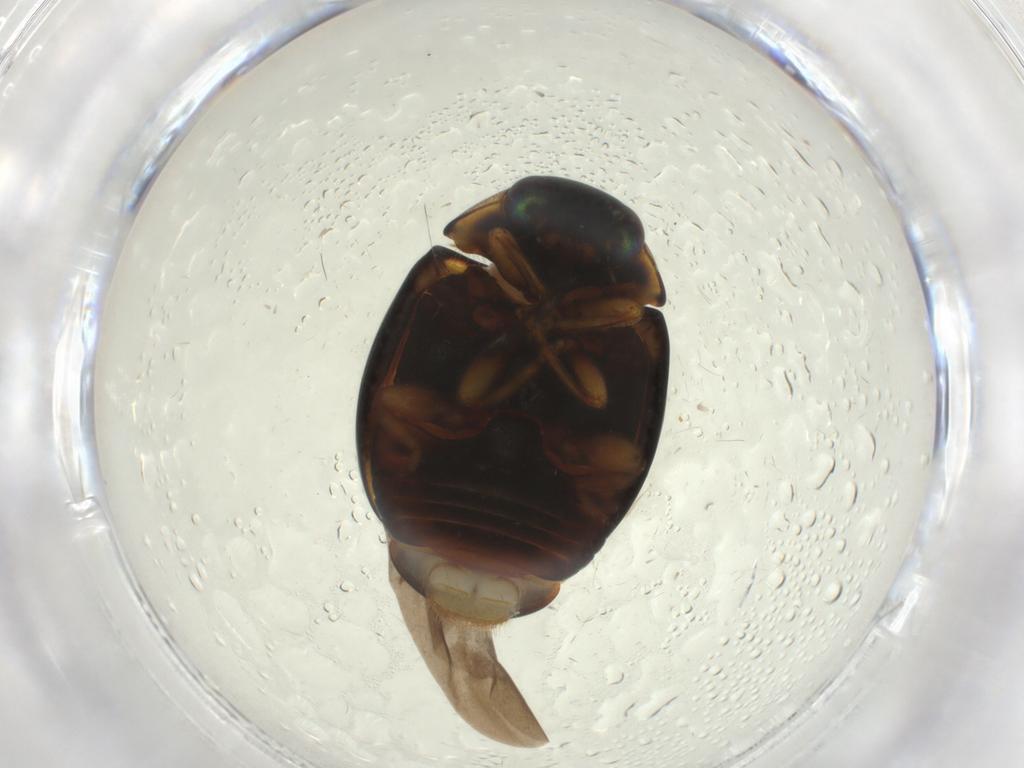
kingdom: Animalia
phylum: Arthropoda
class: Insecta
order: Coleoptera
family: Coccinellidae
